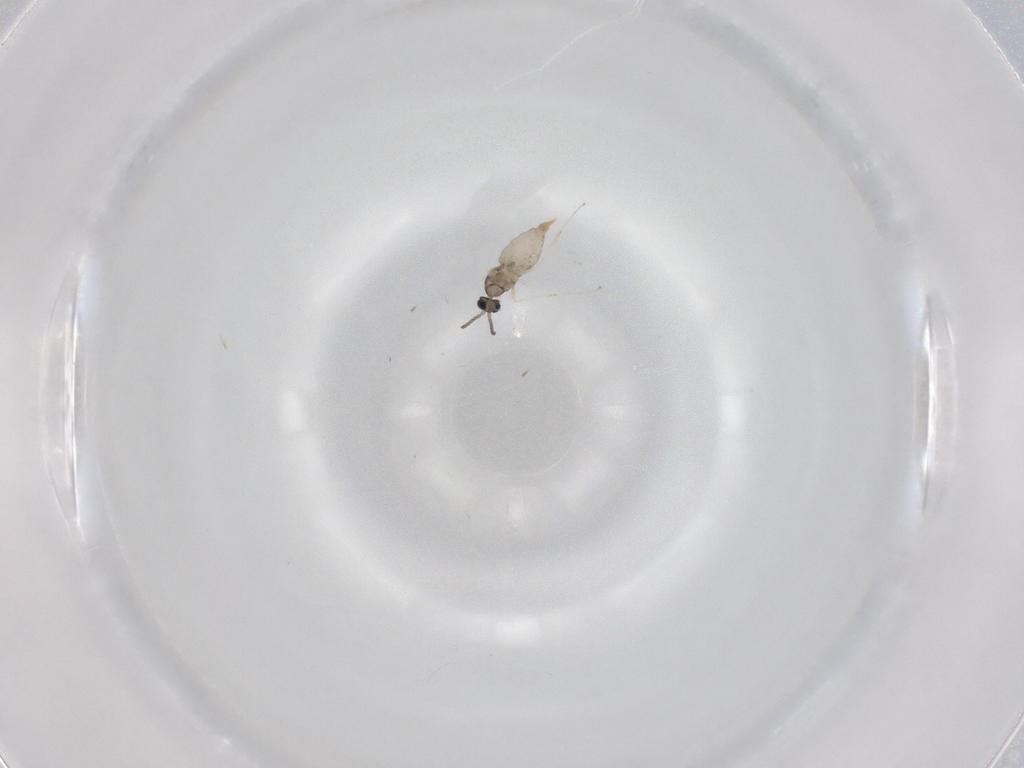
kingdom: Animalia
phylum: Arthropoda
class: Insecta
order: Diptera
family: Cecidomyiidae
